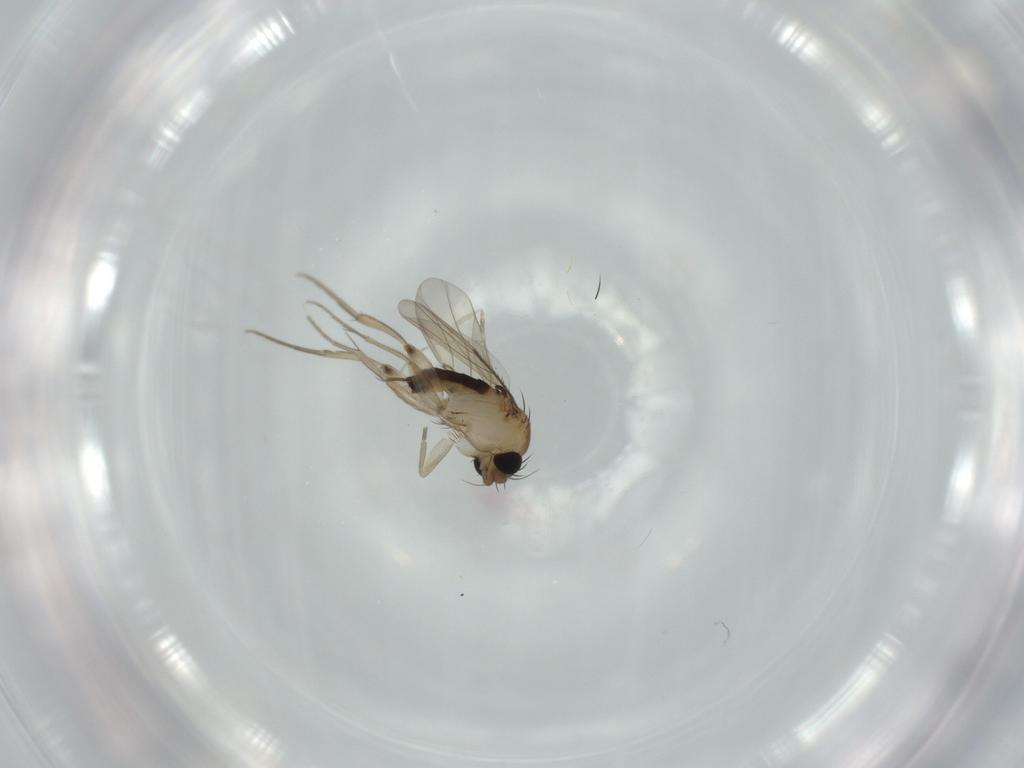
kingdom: Animalia
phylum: Arthropoda
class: Insecta
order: Diptera
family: Phoridae
